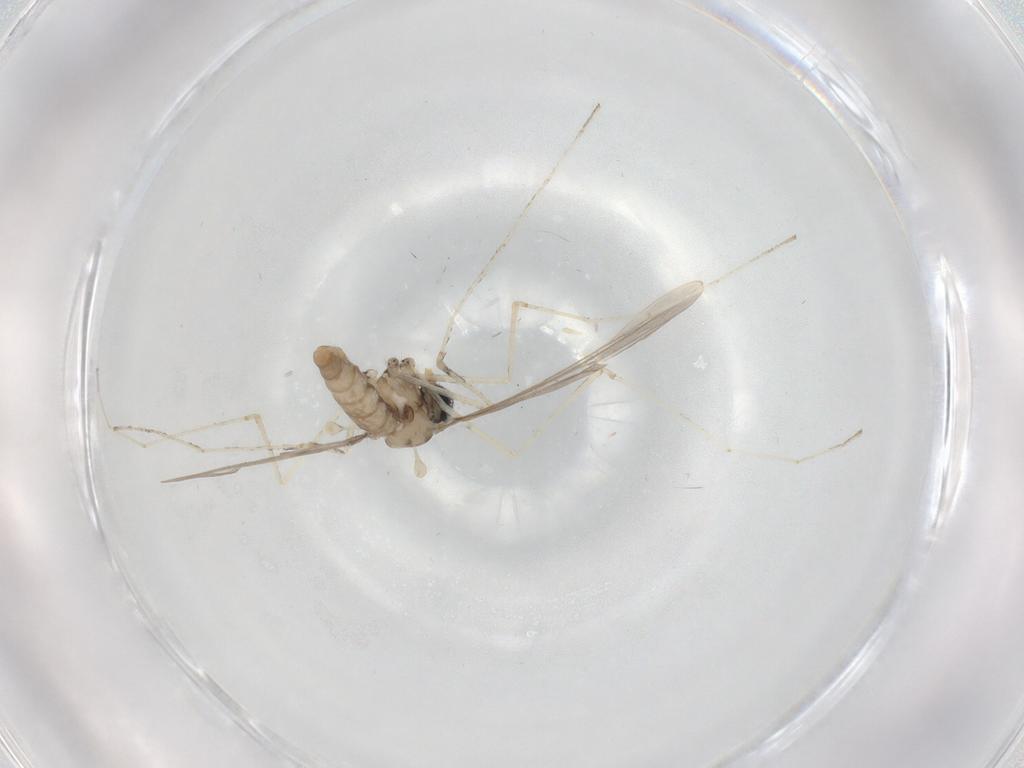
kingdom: Animalia
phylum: Arthropoda
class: Insecta
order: Diptera
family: Cecidomyiidae
